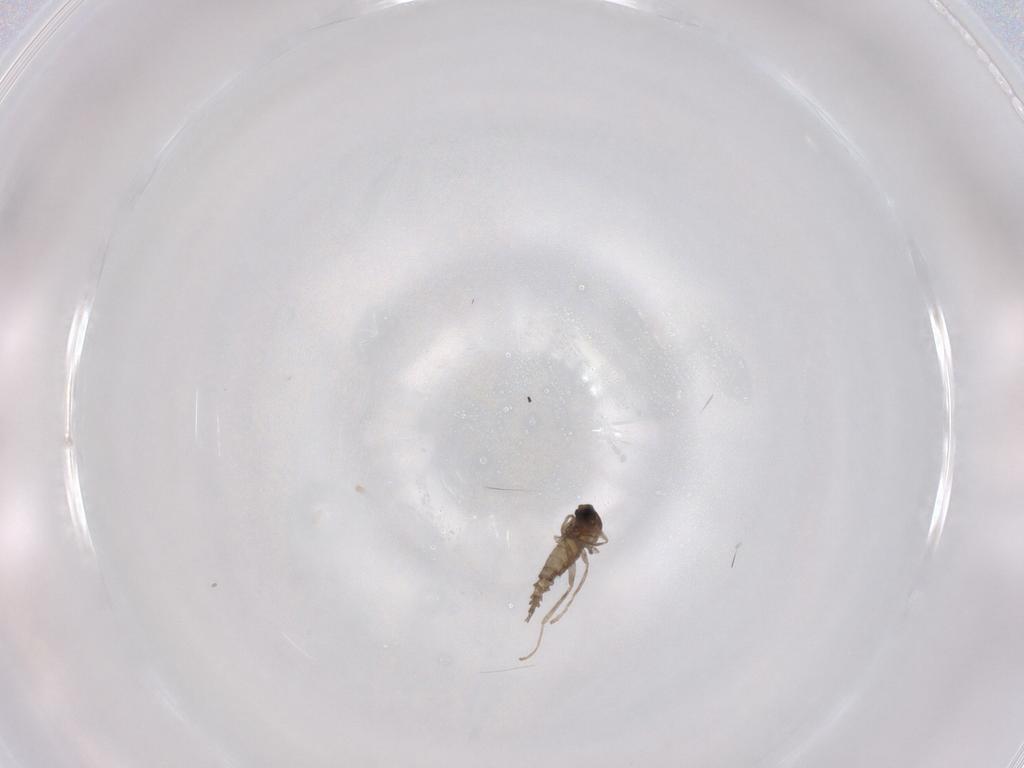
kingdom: Animalia
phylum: Arthropoda
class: Insecta
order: Diptera
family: Cecidomyiidae
